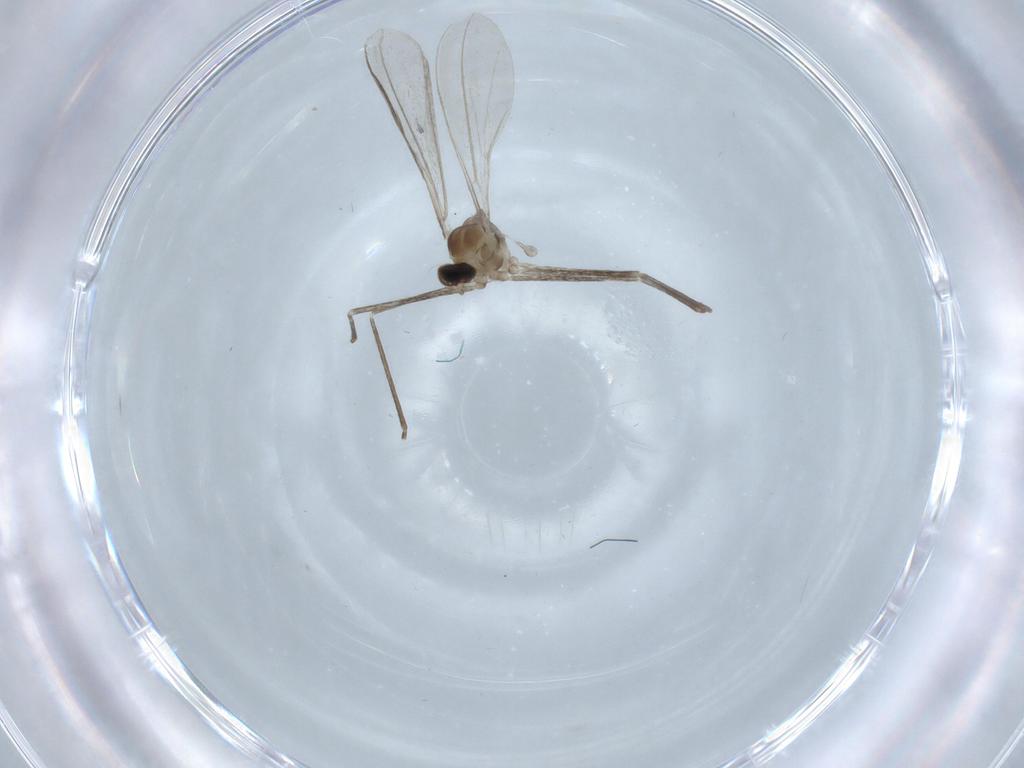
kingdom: Animalia
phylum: Arthropoda
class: Insecta
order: Diptera
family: Cecidomyiidae
